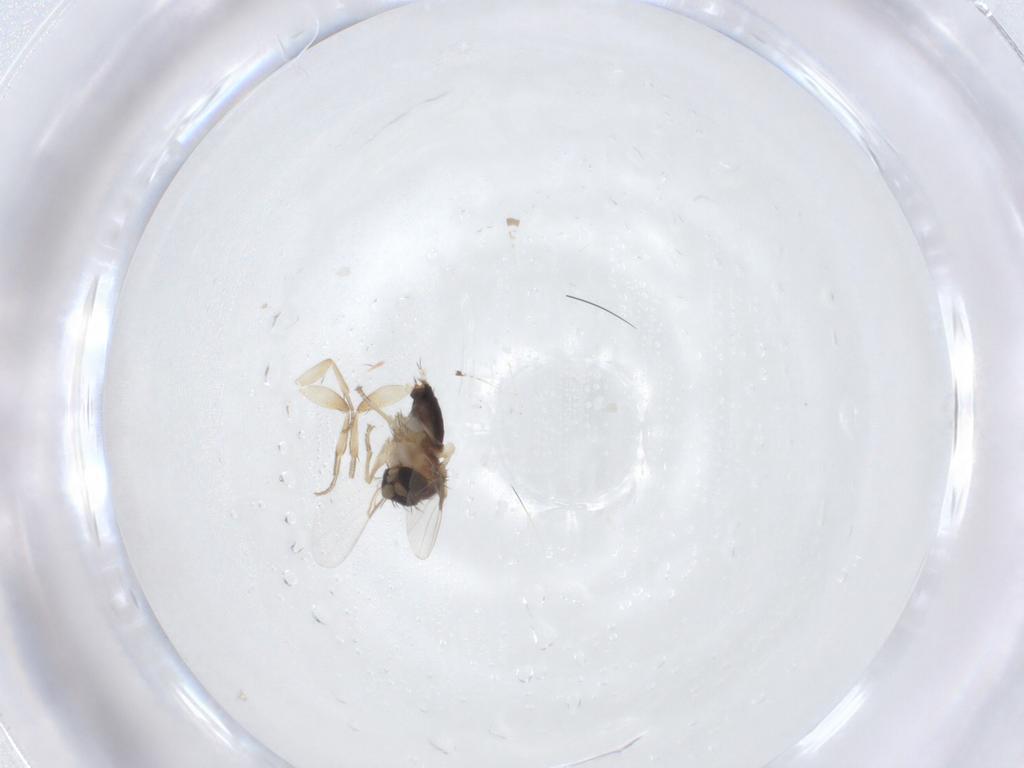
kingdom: Animalia
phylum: Arthropoda
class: Insecta
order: Diptera
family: Phoridae
